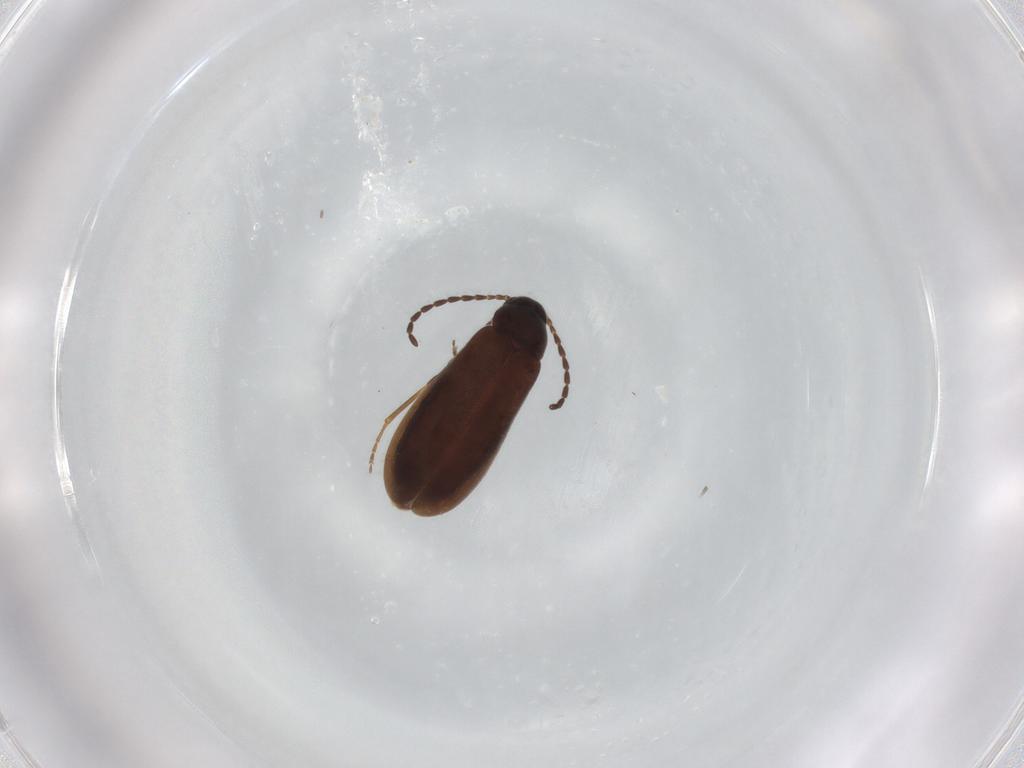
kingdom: Animalia
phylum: Arthropoda
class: Insecta
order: Coleoptera
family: Scraptiidae
